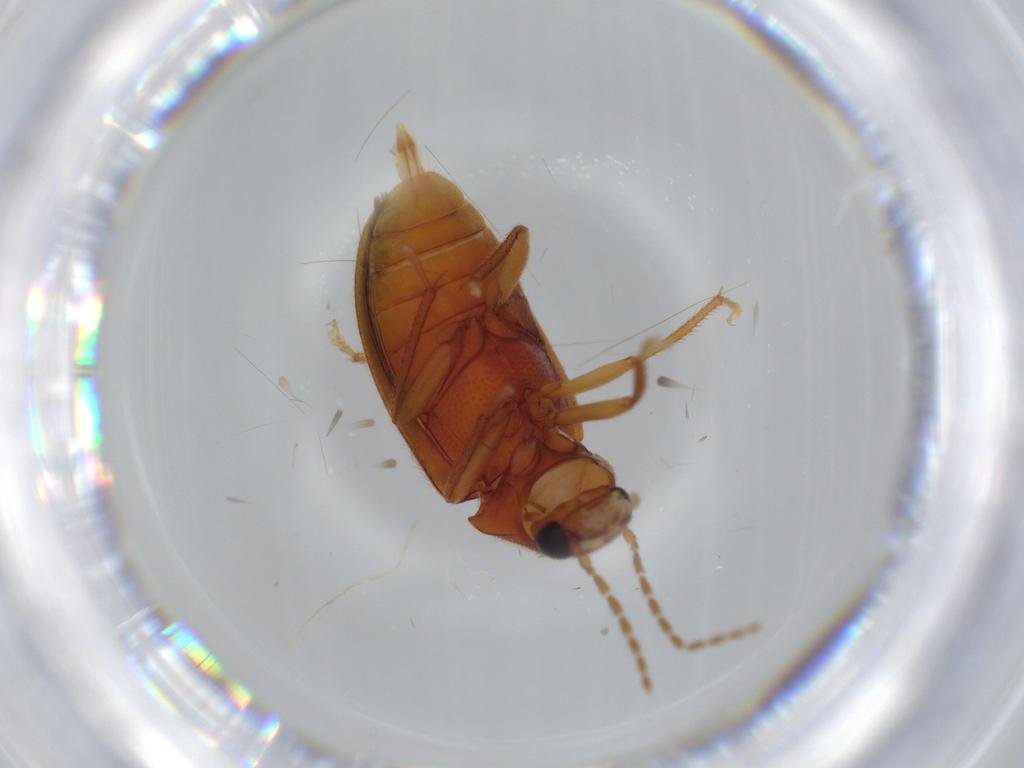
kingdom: Animalia
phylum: Arthropoda
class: Insecta
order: Coleoptera
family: Ptilodactylidae
